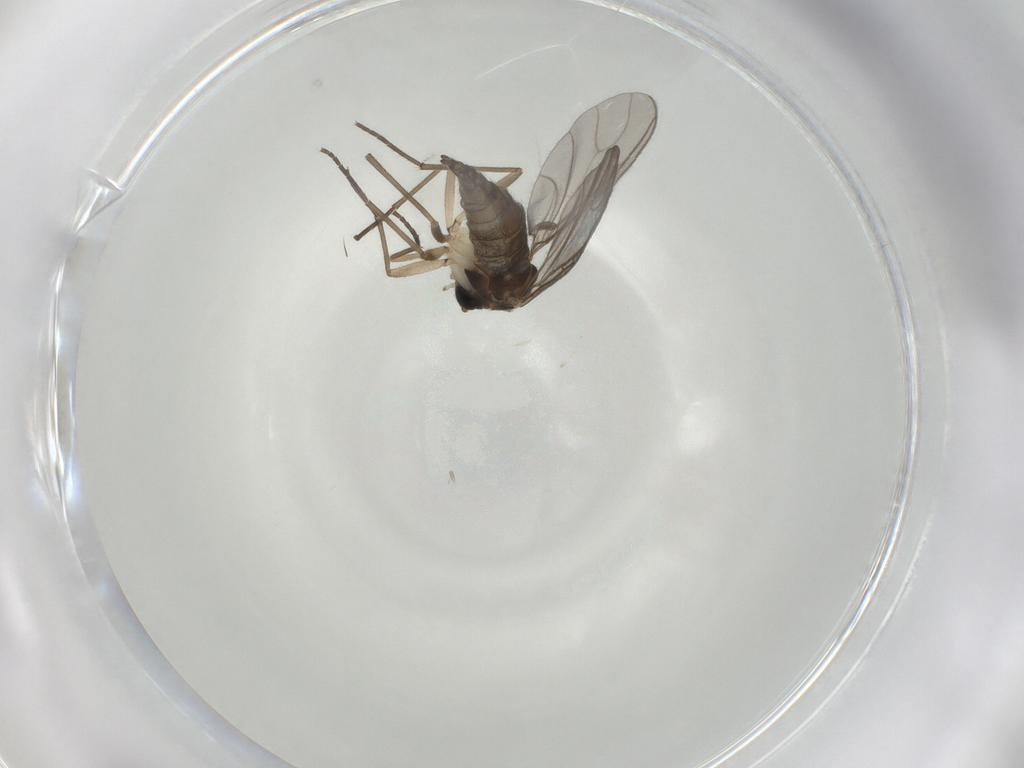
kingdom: Animalia
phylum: Arthropoda
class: Insecta
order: Diptera
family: Sciaridae
